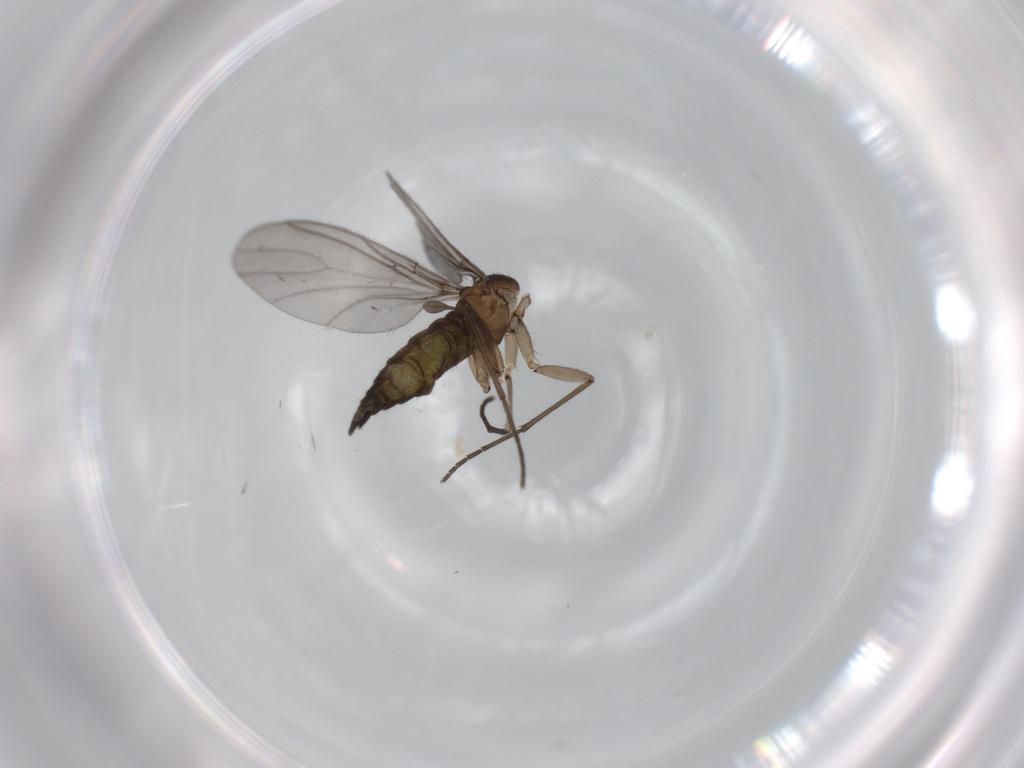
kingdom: Animalia
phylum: Arthropoda
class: Insecta
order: Diptera
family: Sciaridae
